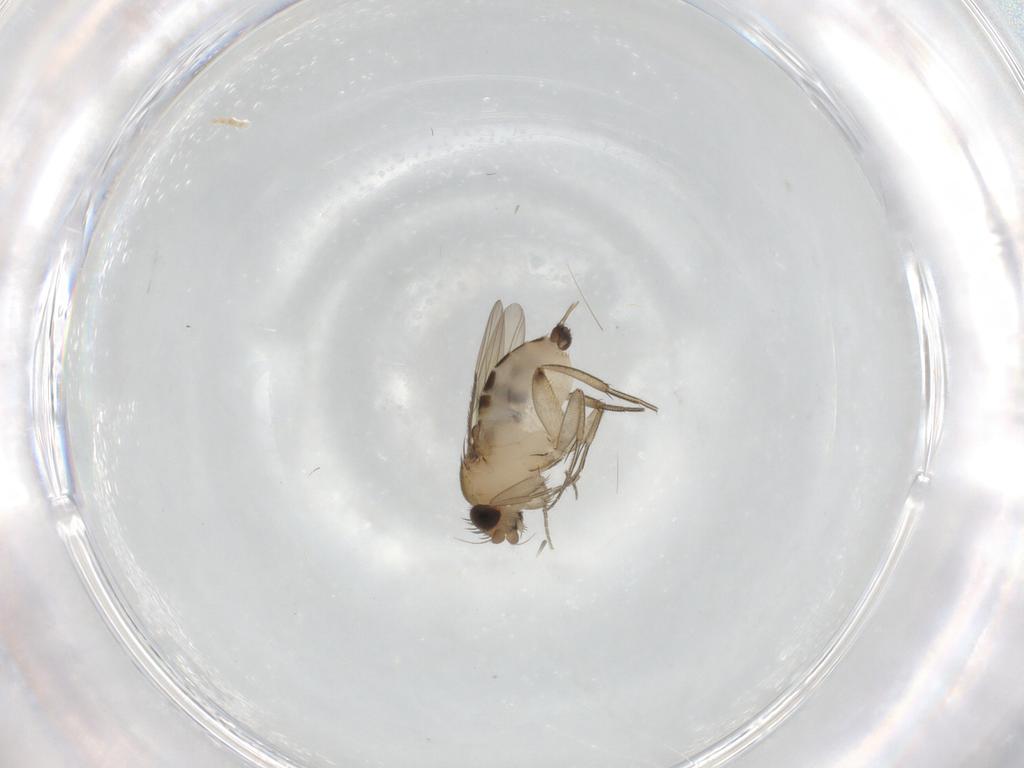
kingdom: Animalia
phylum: Arthropoda
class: Insecta
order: Diptera
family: Phoridae
